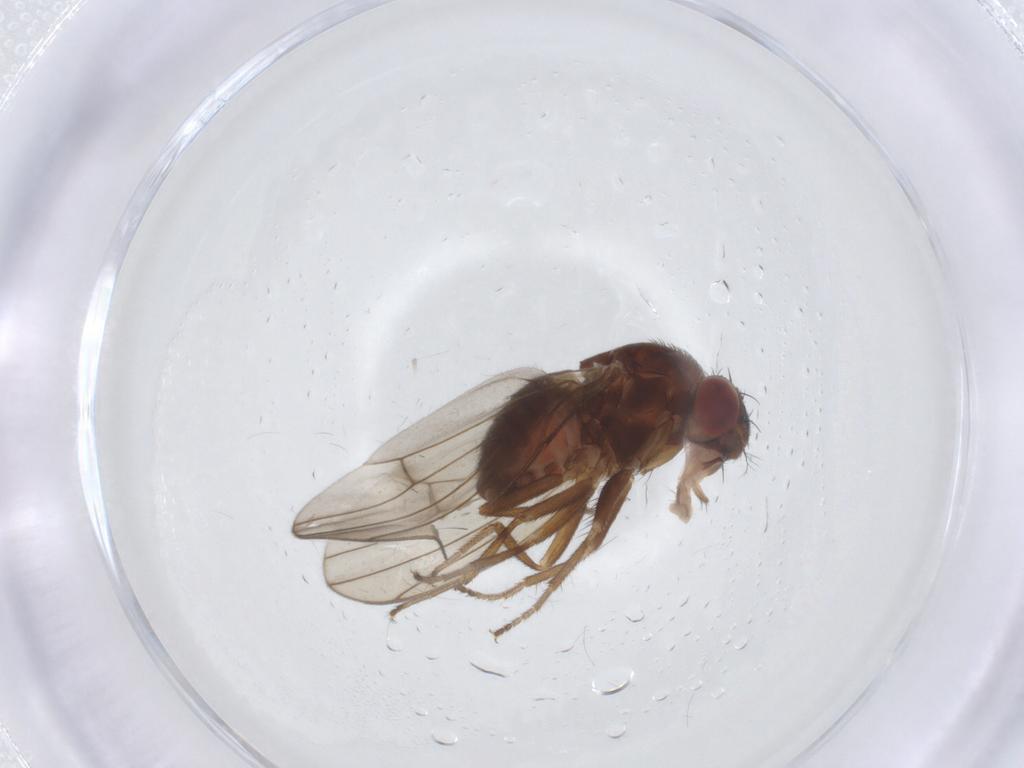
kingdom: Animalia
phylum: Arthropoda
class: Insecta
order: Diptera
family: Drosophilidae
